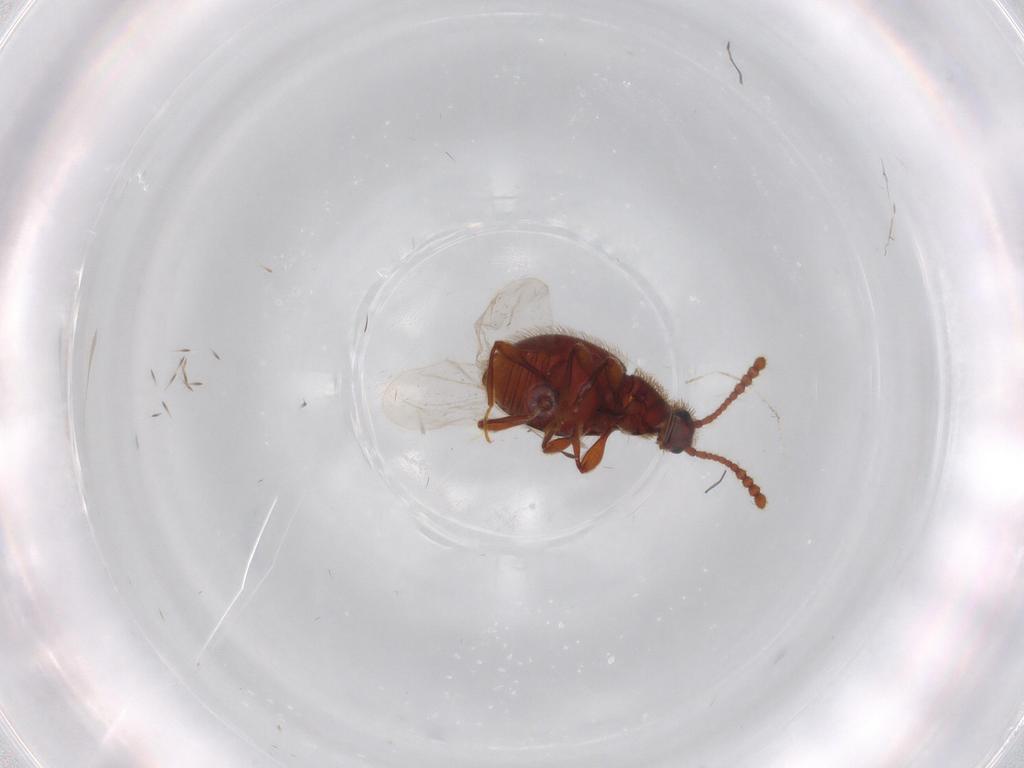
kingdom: Animalia
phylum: Arthropoda
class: Insecta
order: Coleoptera
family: Staphylinidae
